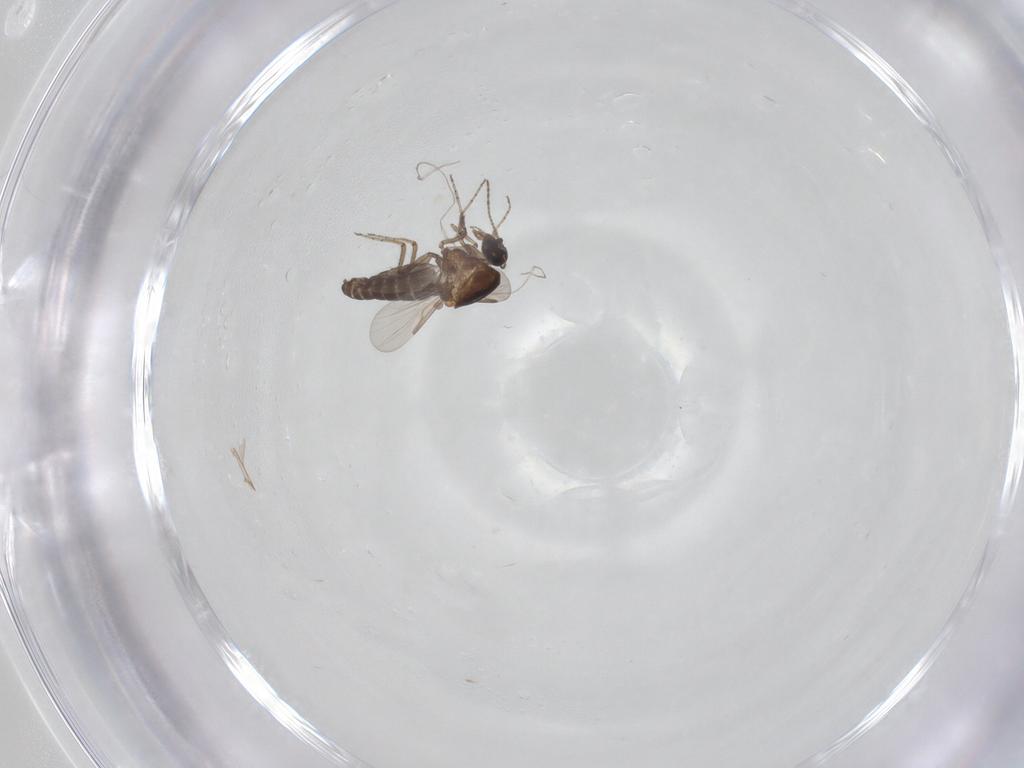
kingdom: Animalia
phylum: Arthropoda
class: Insecta
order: Diptera
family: Ceratopogonidae
